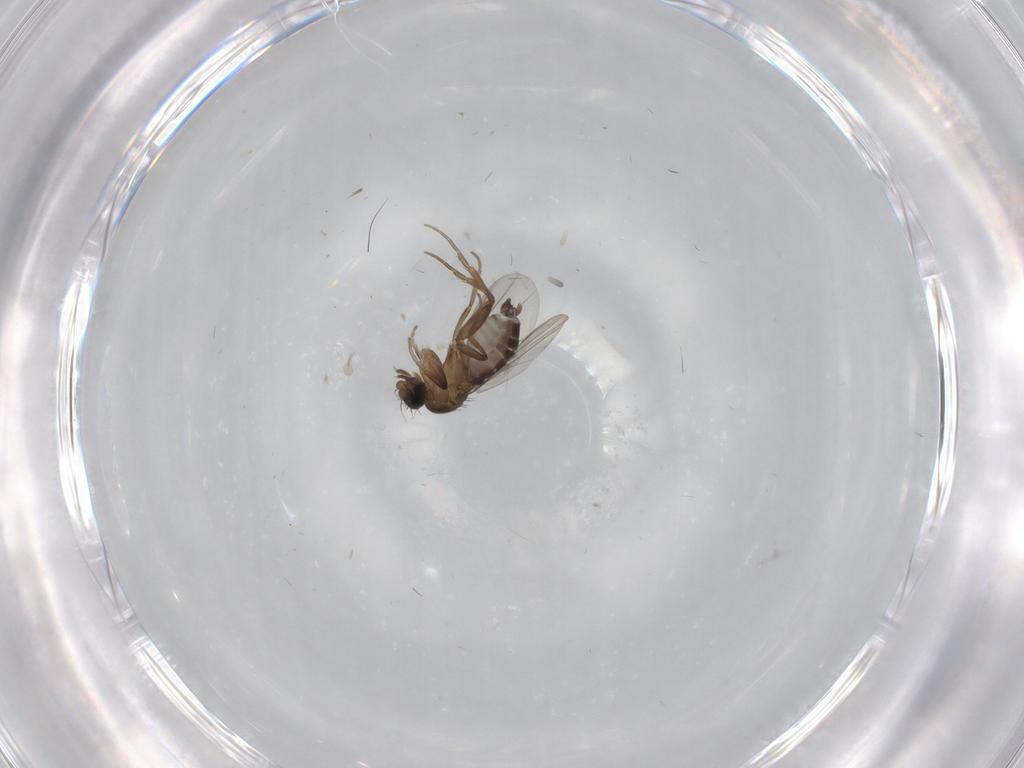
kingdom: Animalia
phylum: Arthropoda
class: Insecta
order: Diptera
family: Phoridae
